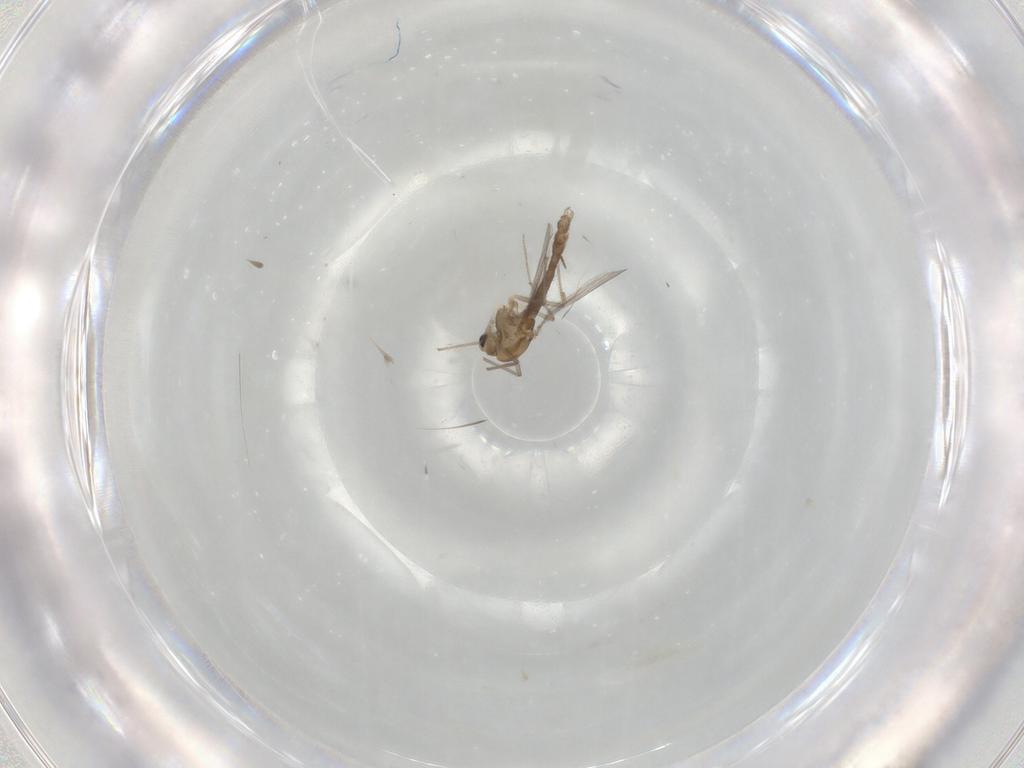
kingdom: Animalia
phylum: Arthropoda
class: Insecta
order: Diptera
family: Chironomidae
